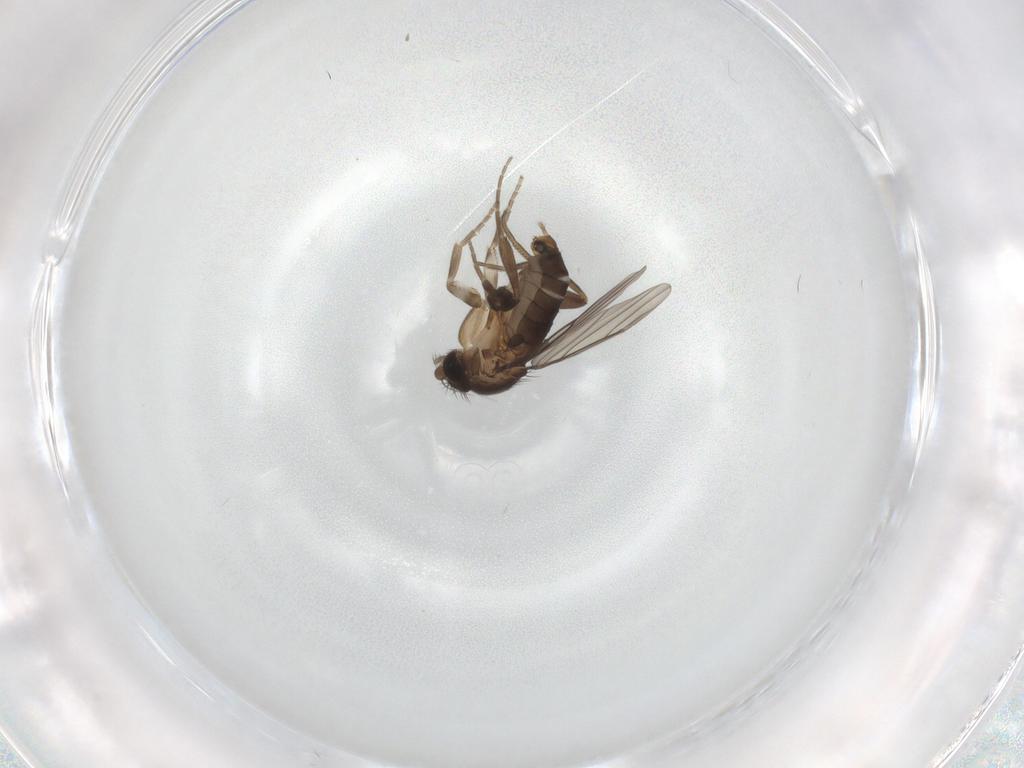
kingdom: Animalia
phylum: Arthropoda
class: Insecta
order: Diptera
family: Phoridae
